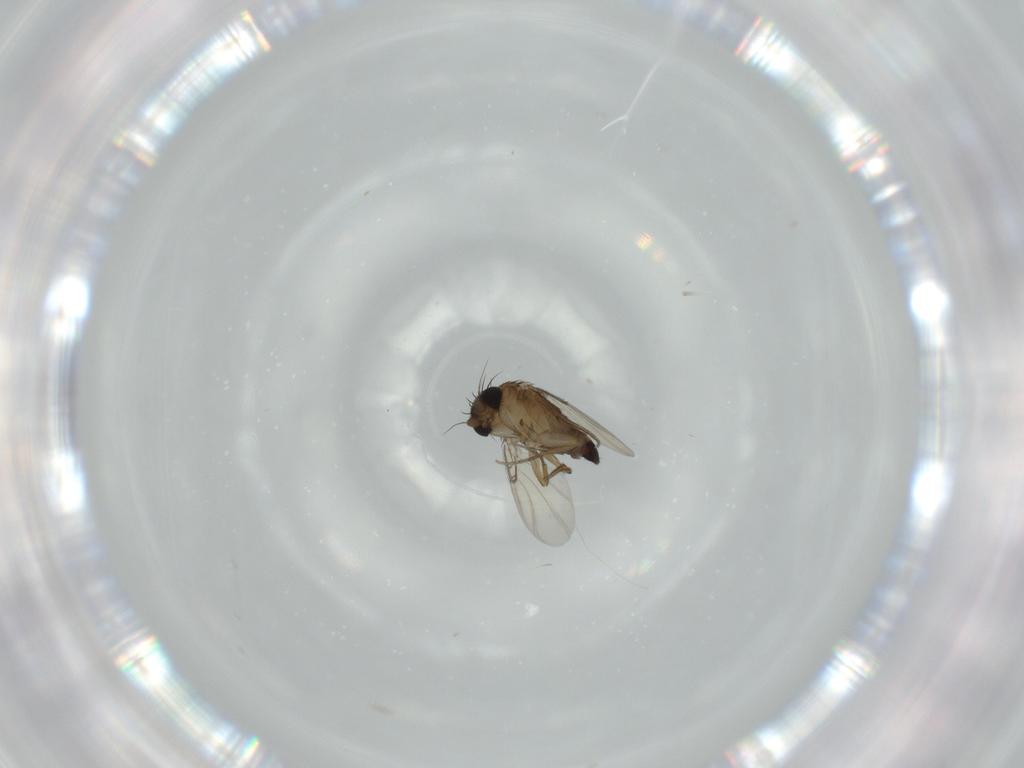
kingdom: Animalia
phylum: Arthropoda
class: Insecta
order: Diptera
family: Phoridae
